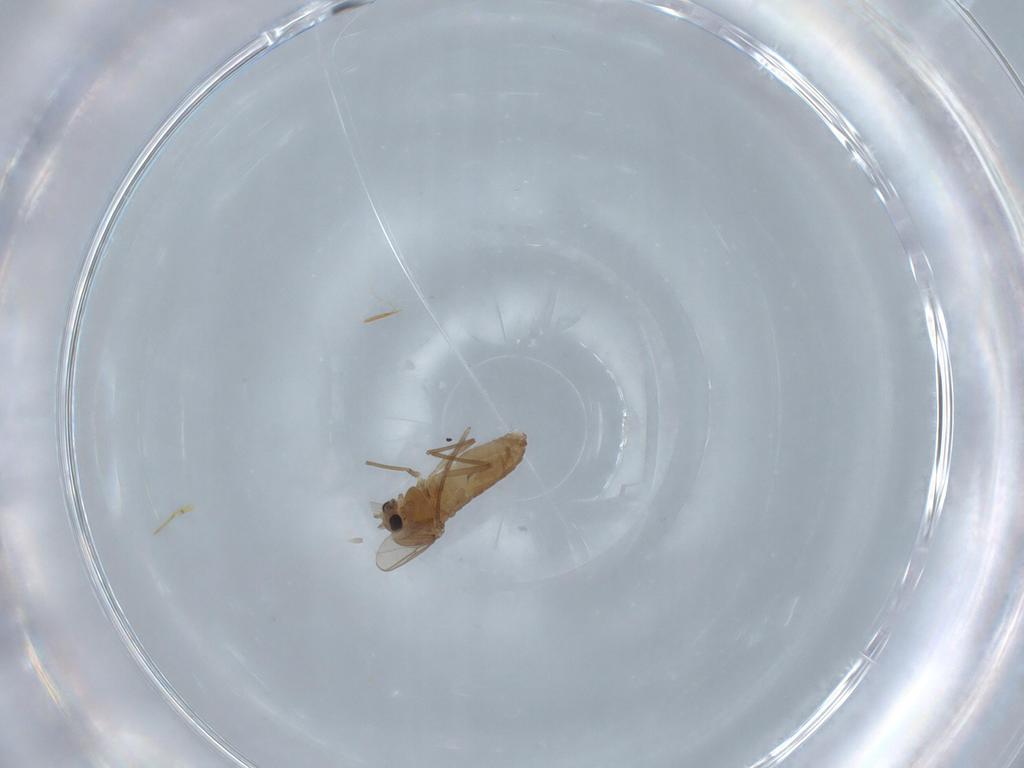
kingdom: Animalia
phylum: Arthropoda
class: Insecta
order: Diptera
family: Chironomidae
